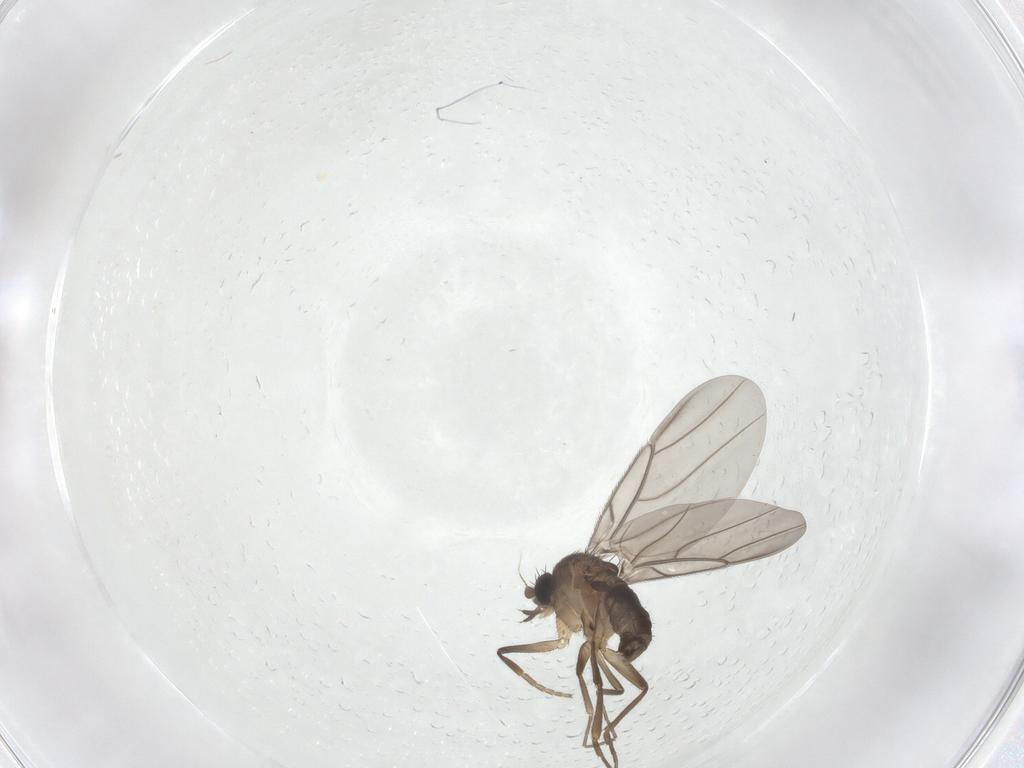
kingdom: Animalia
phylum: Arthropoda
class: Insecta
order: Diptera
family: Phoridae
